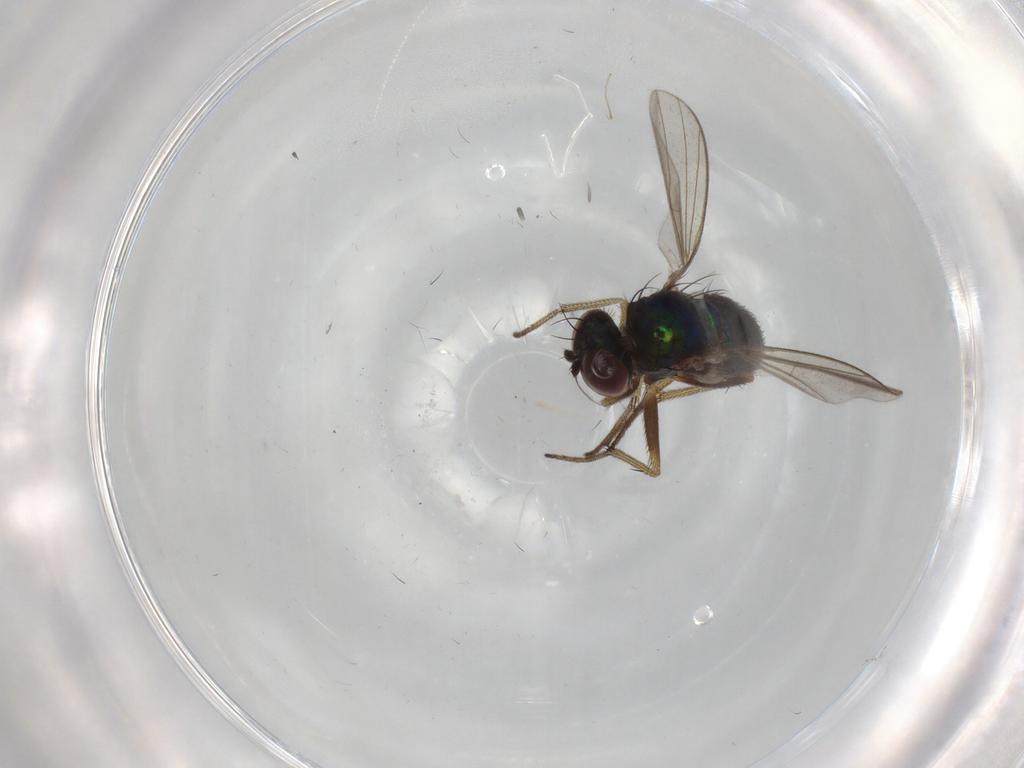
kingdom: Animalia
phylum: Arthropoda
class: Insecta
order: Diptera
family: Dolichopodidae
